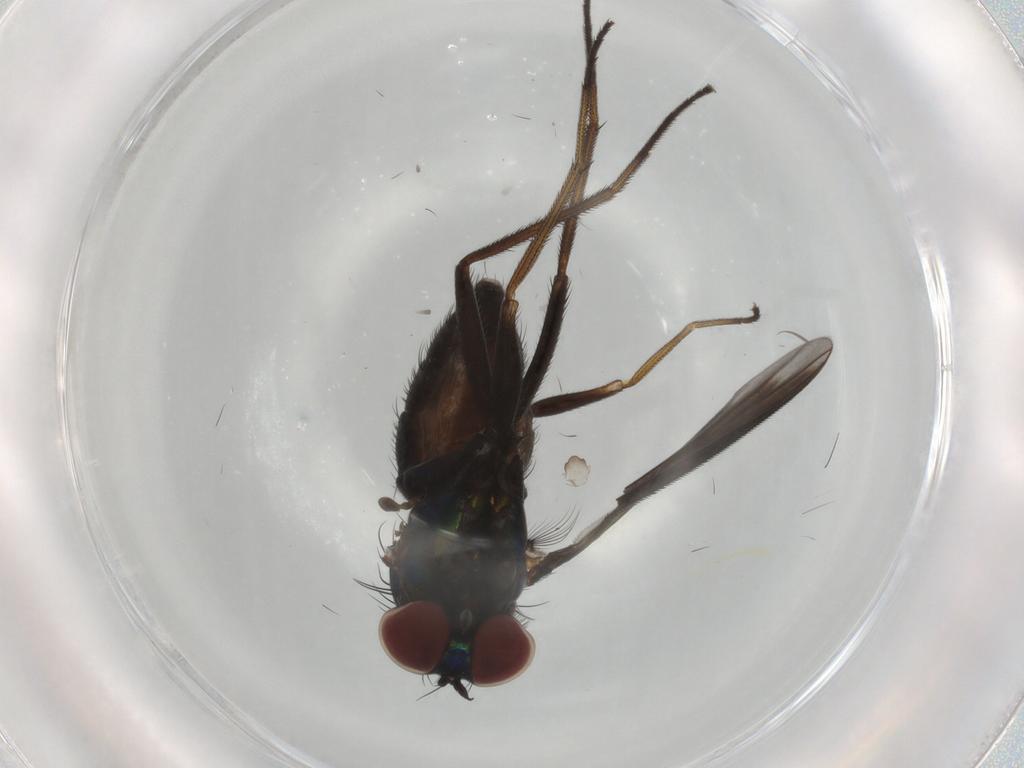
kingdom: Animalia
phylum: Arthropoda
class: Insecta
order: Diptera
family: Dolichopodidae
